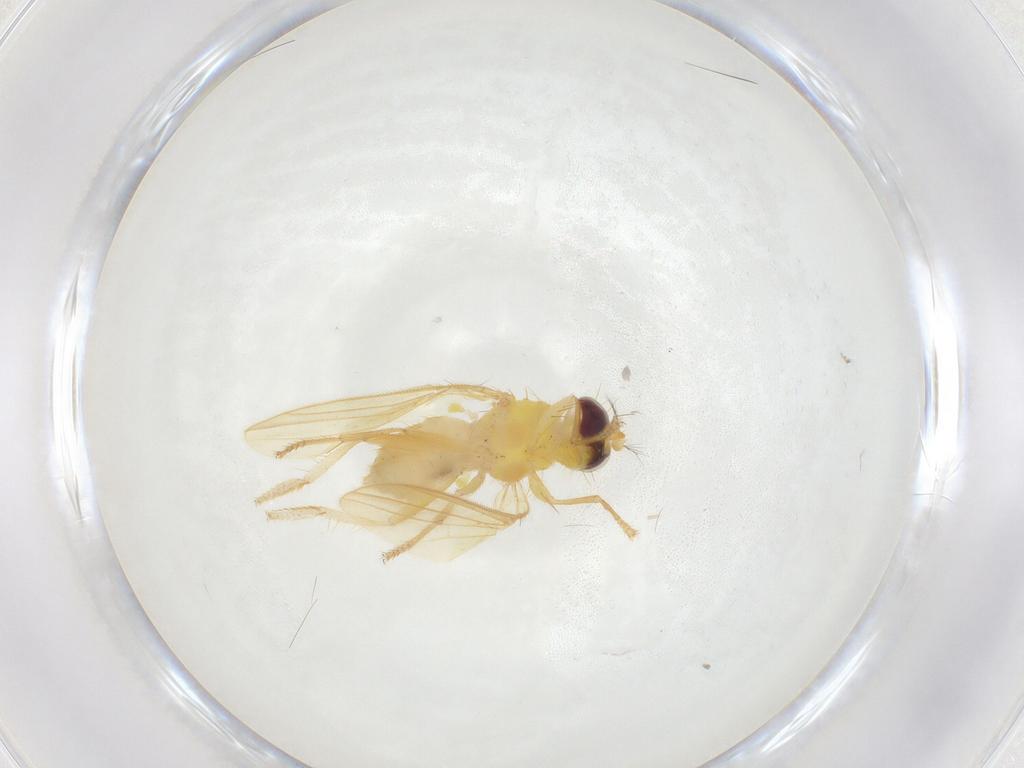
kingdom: Animalia
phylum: Arthropoda
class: Insecta
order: Diptera
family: Periscelididae
